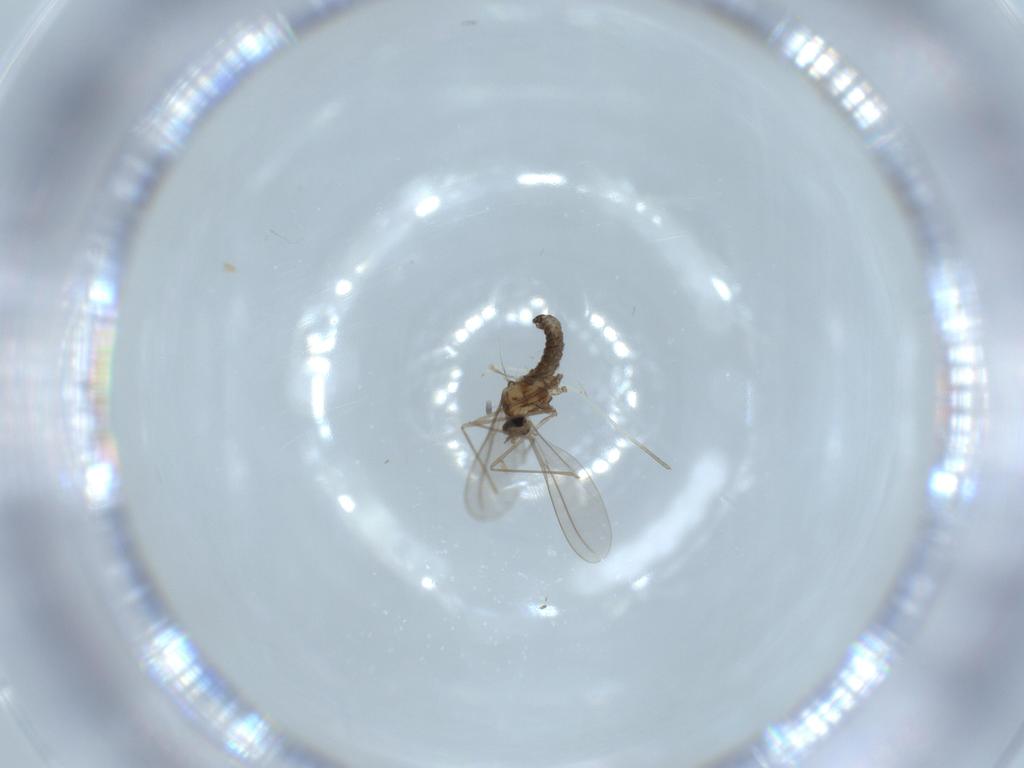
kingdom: Animalia
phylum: Arthropoda
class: Insecta
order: Diptera
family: Cecidomyiidae
